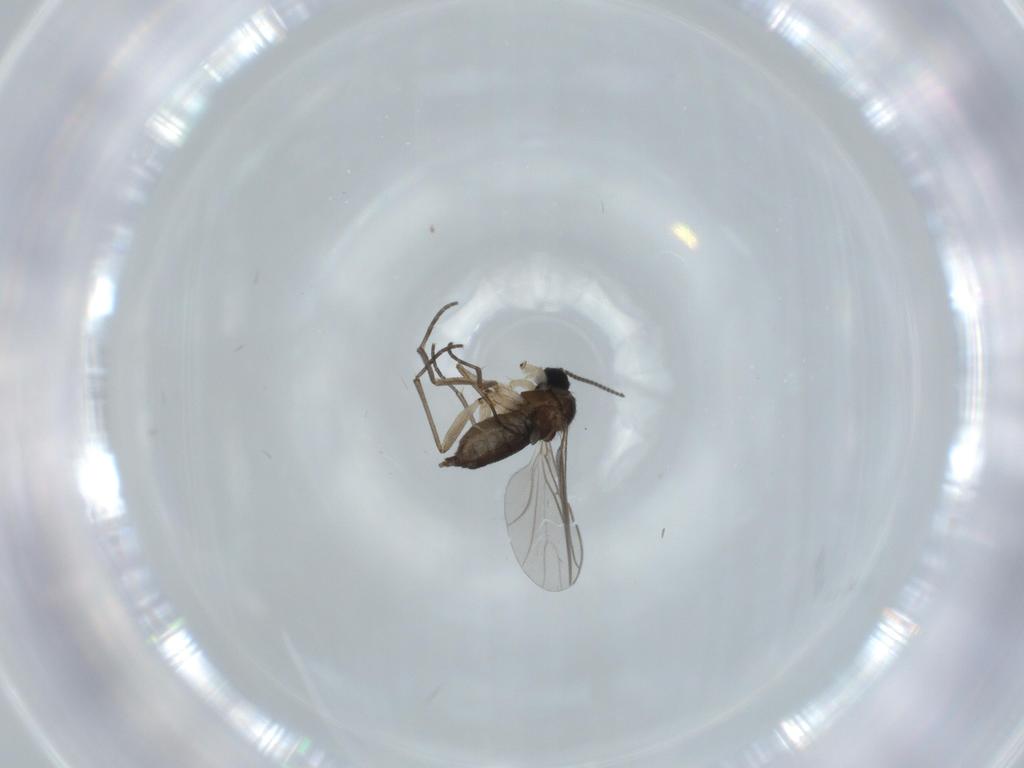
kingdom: Animalia
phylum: Arthropoda
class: Insecta
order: Diptera
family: Sciaridae
